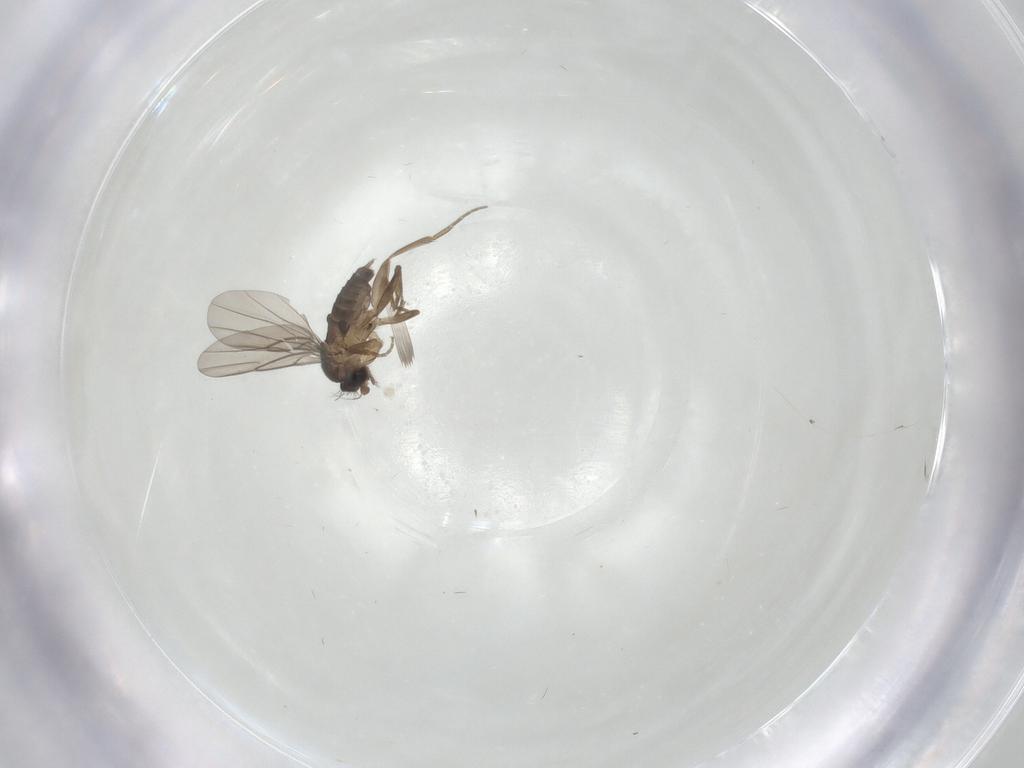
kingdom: Animalia
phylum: Arthropoda
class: Insecta
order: Diptera
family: Phoridae
